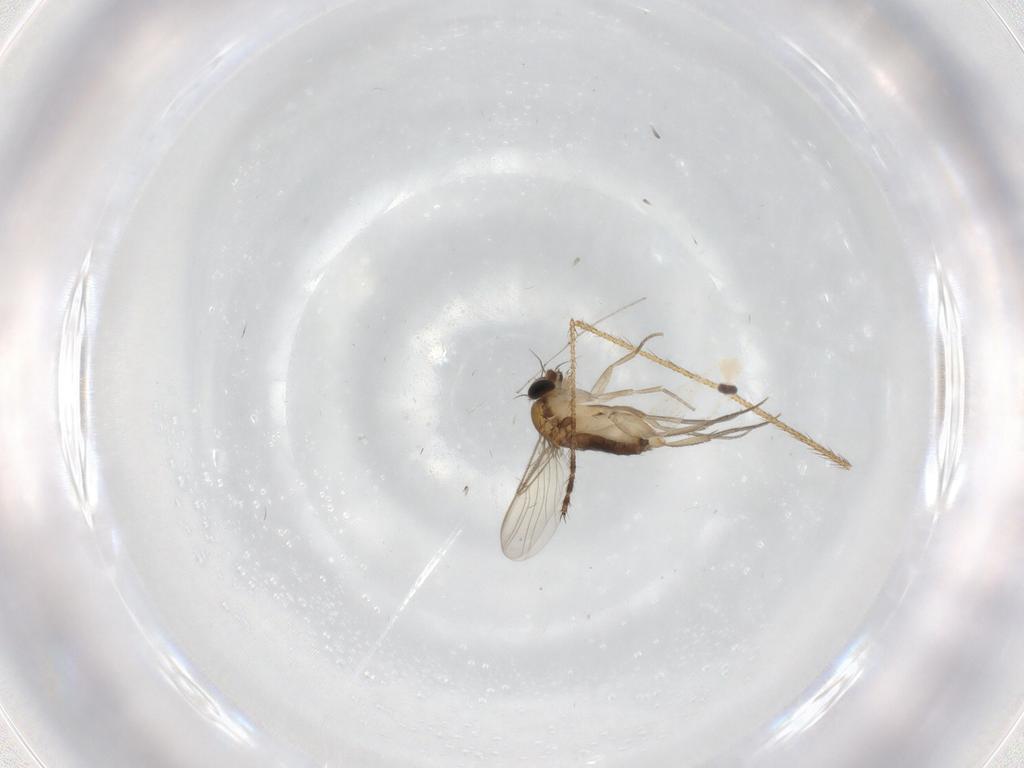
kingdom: Animalia
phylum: Arthropoda
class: Insecta
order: Diptera
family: Phoridae
